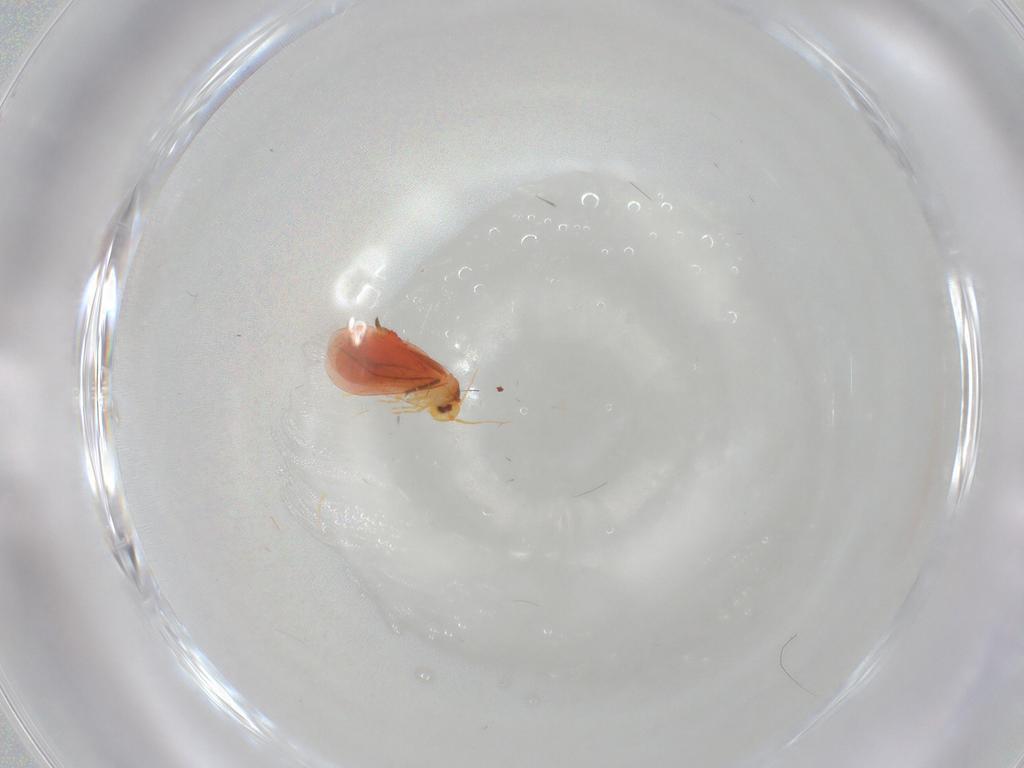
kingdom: Animalia
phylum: Arthropoda
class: Insecta
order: Hemiptera
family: Aleyrodidae
